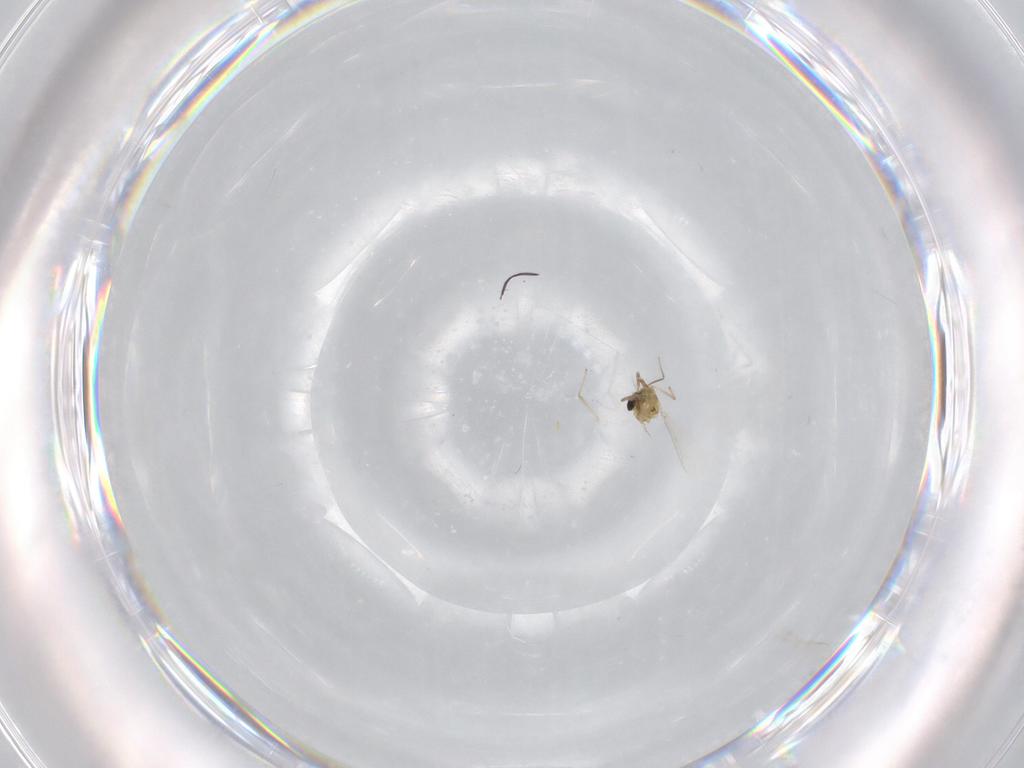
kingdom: Animalia
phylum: Arthropoda
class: Insecta
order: Diptera
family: Chironomidae
